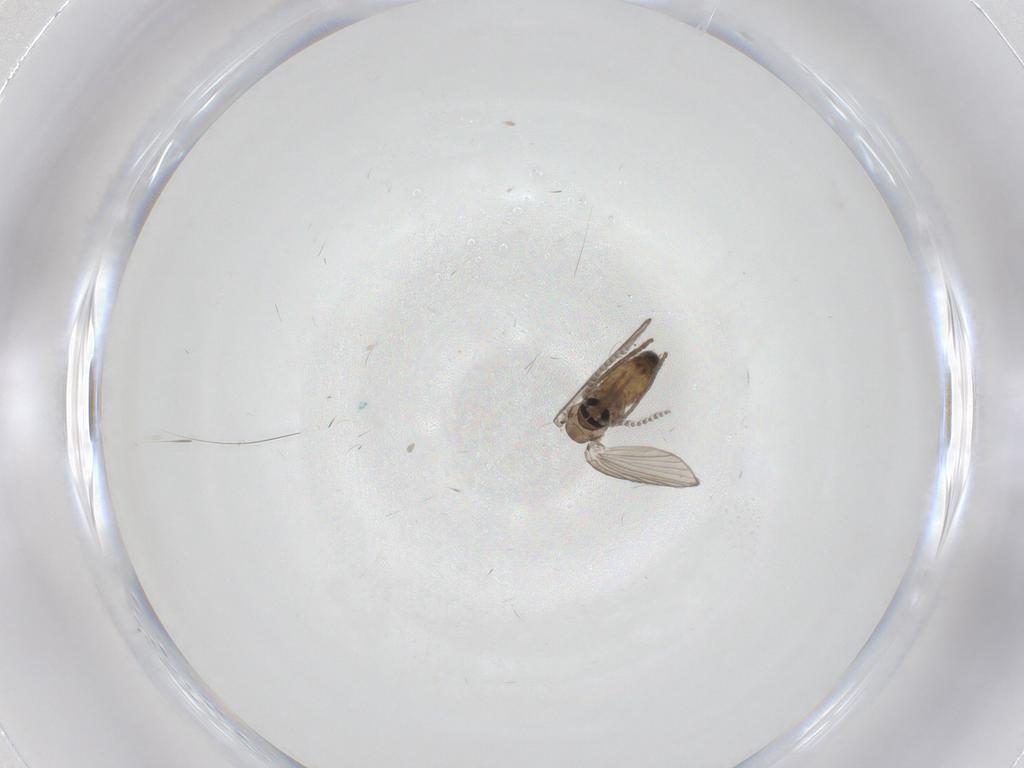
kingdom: Animalia
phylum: Arthropoda
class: Insecta
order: Diptera
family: Psychodidae
